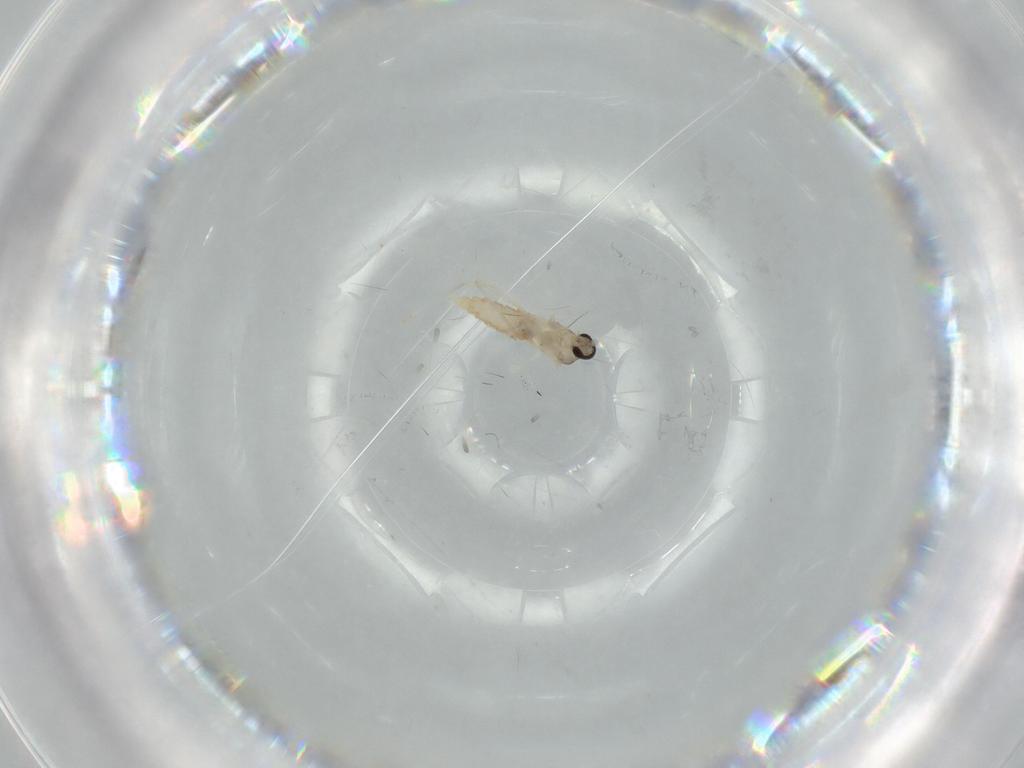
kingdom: Animalia
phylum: Arthropoda
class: Insecta
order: Diptera
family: Cecidomyiidae
